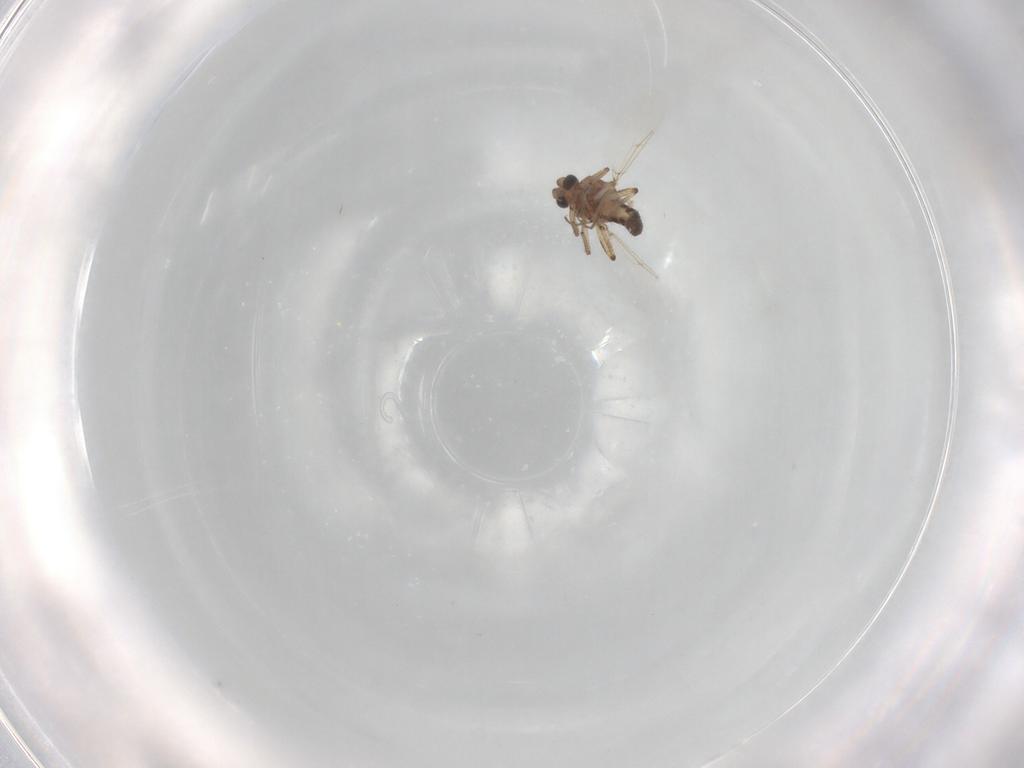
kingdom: Animalia
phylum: Arthropoda
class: Insecta
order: Diptera
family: Ceratopogonidae
